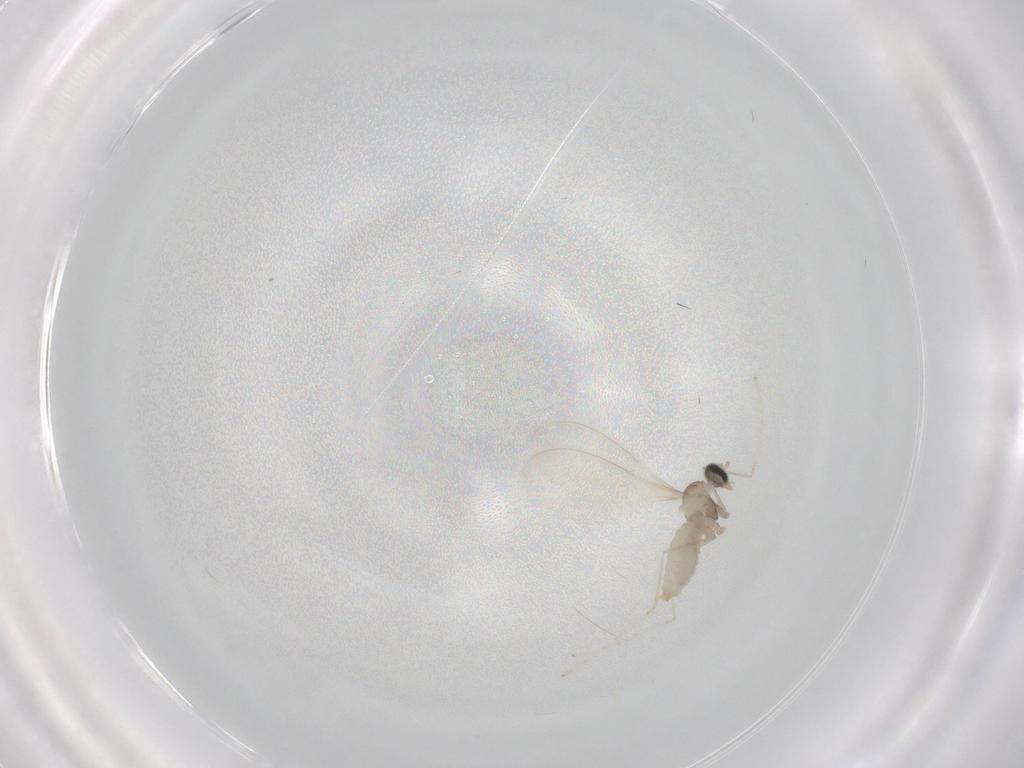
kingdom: Animalia
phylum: Arthropoda
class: Insecta
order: Diptera
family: Cecidomyiidae
